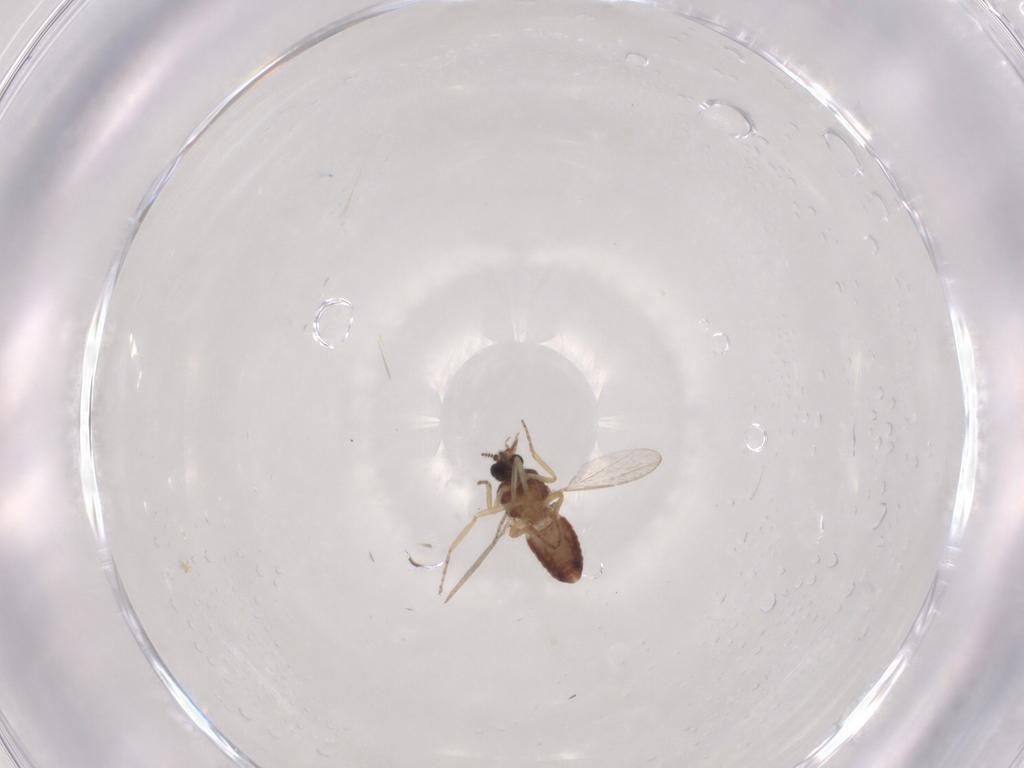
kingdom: Animalia
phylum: Arthropoda
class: Insecta
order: Diptera
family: Ceratopogonidae
